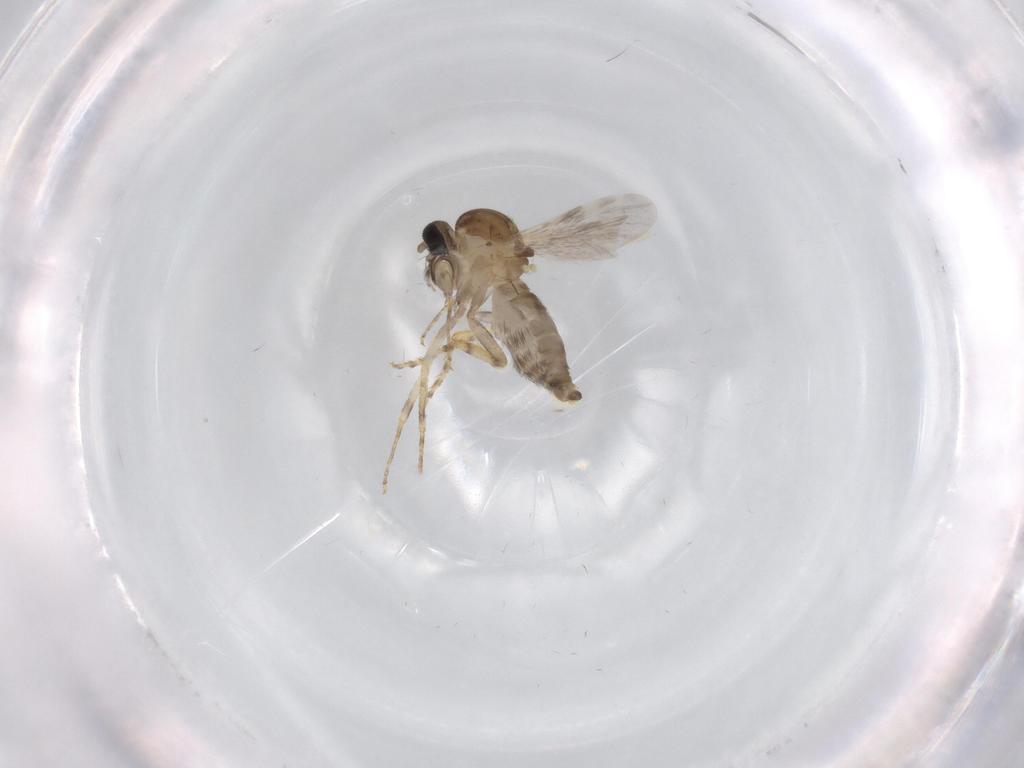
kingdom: Animalia
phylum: Arthropoda
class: Insecta
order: Diptera
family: Ceratopogonidae
